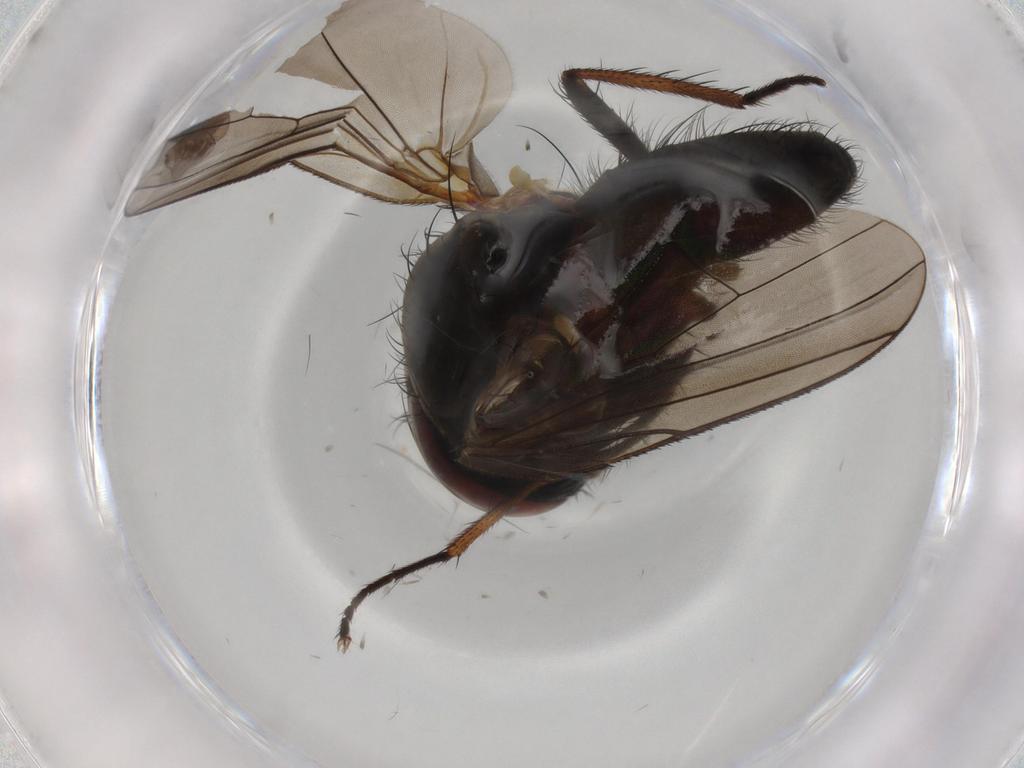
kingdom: Animalia
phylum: Arthropoda
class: Insecta
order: Diptera
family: Anthomyiidae
